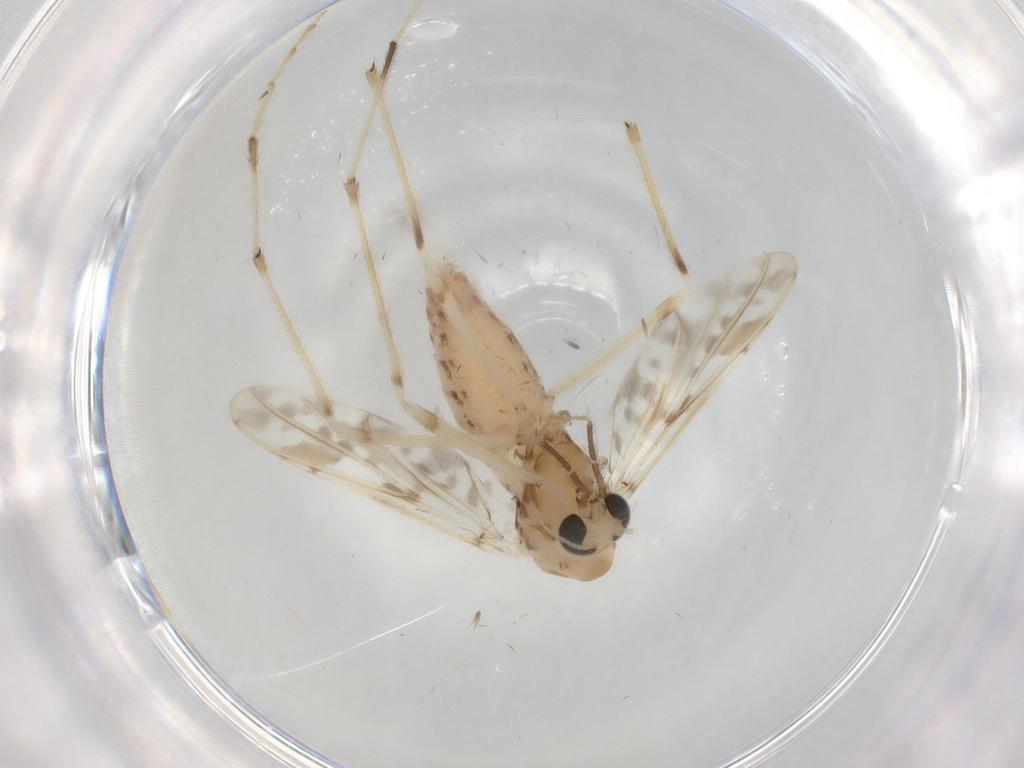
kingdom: Animalia
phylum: Arthropoda
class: Insecta
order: Diptera
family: Chironomidae
